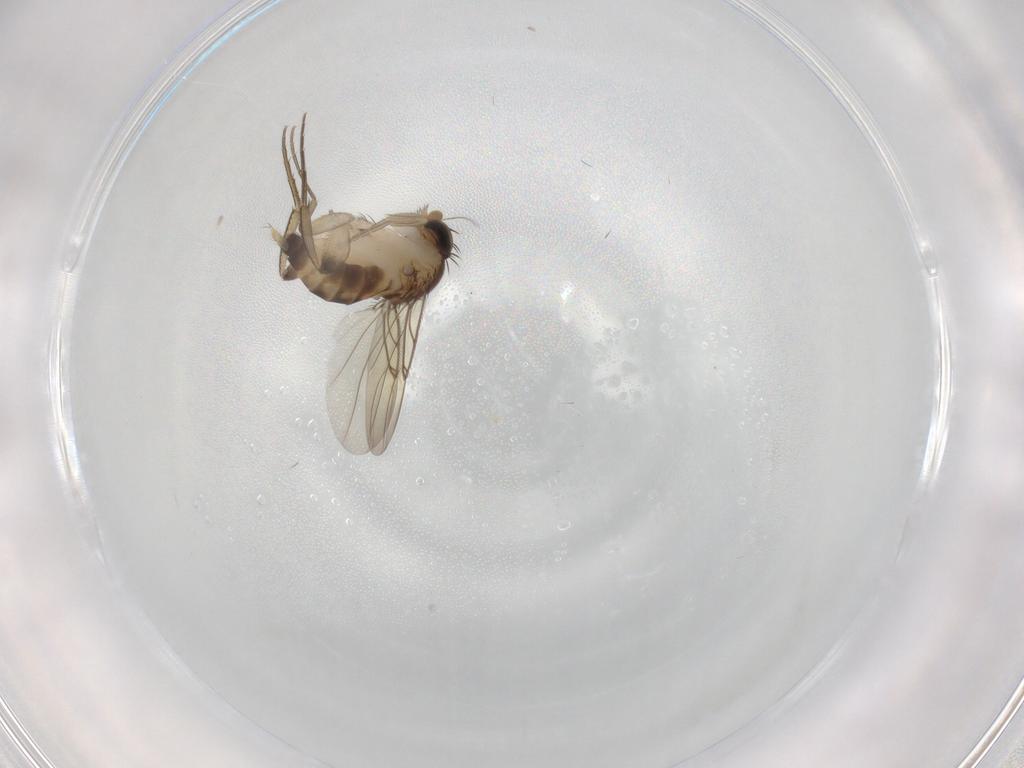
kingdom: Animalia
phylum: Arthropoda
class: Insecta
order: Diptera
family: Phoridae
